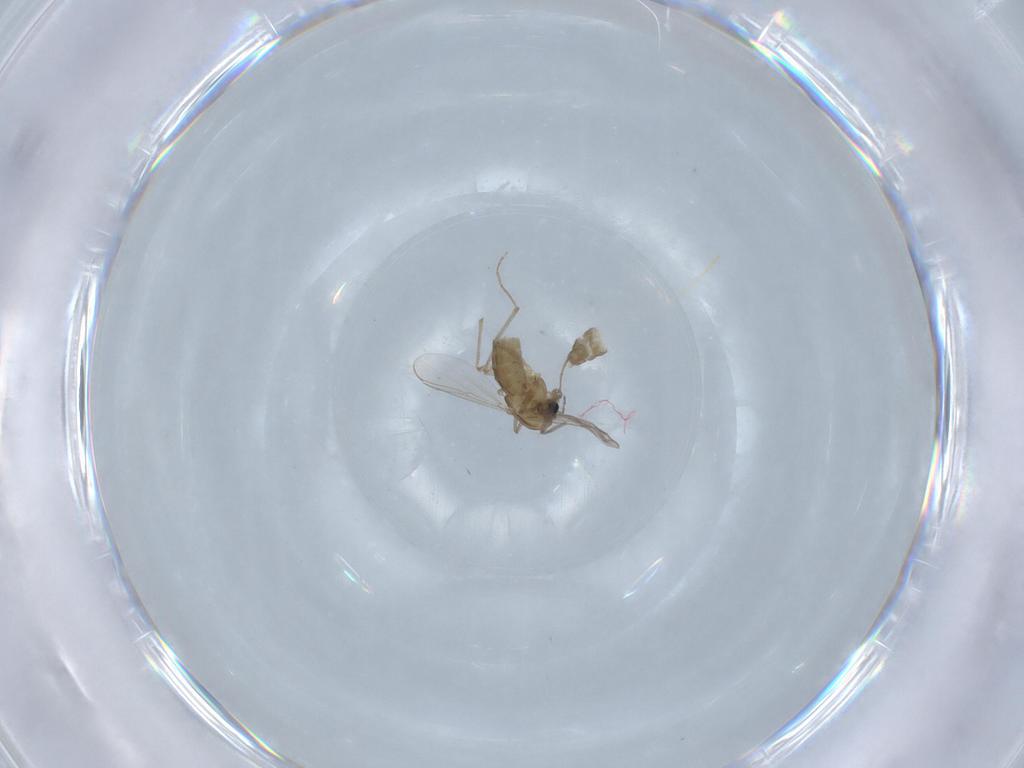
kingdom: Animalia
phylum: Arthropoda
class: Insecta
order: Diptera
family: Chironomidae
